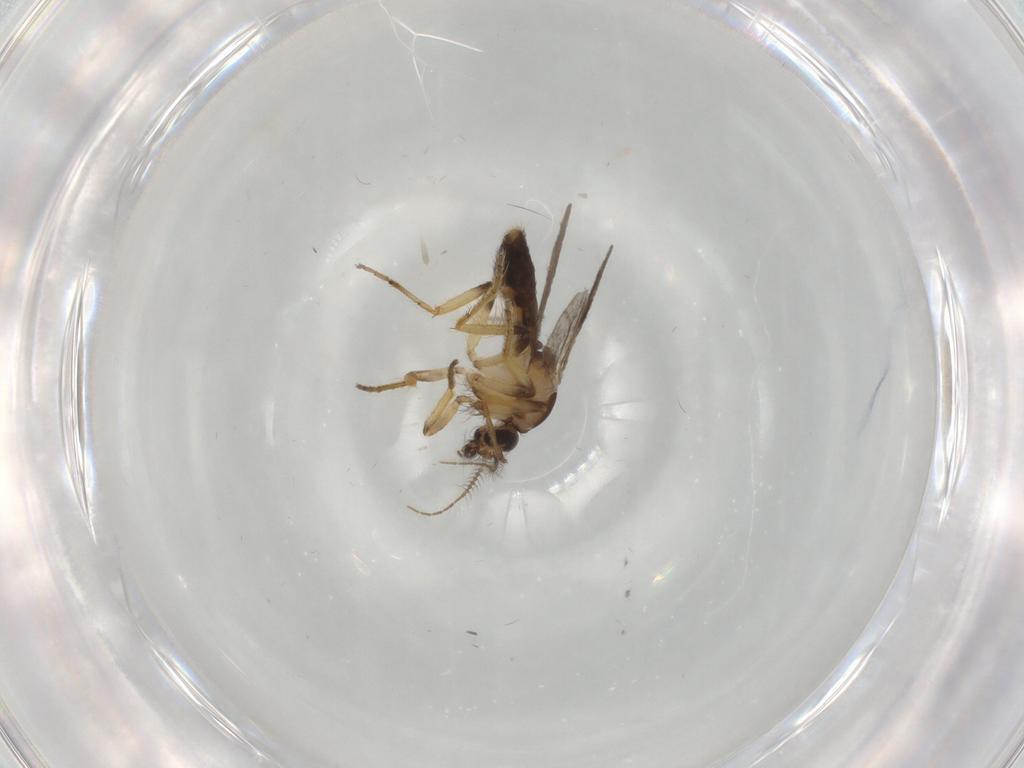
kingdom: Animalia
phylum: Arthropoda
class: Insecta
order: Diptera
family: Ceratopogonidae
